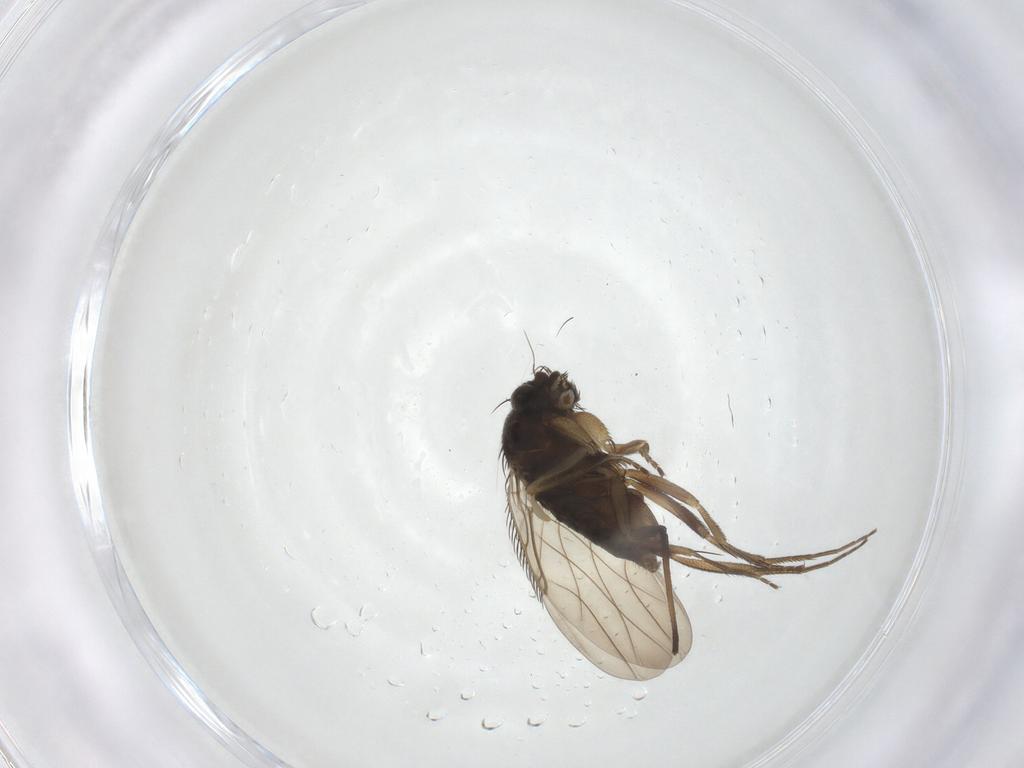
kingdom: Animalia
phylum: Arthropoda
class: Insecta
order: Diptera
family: Phoridae
